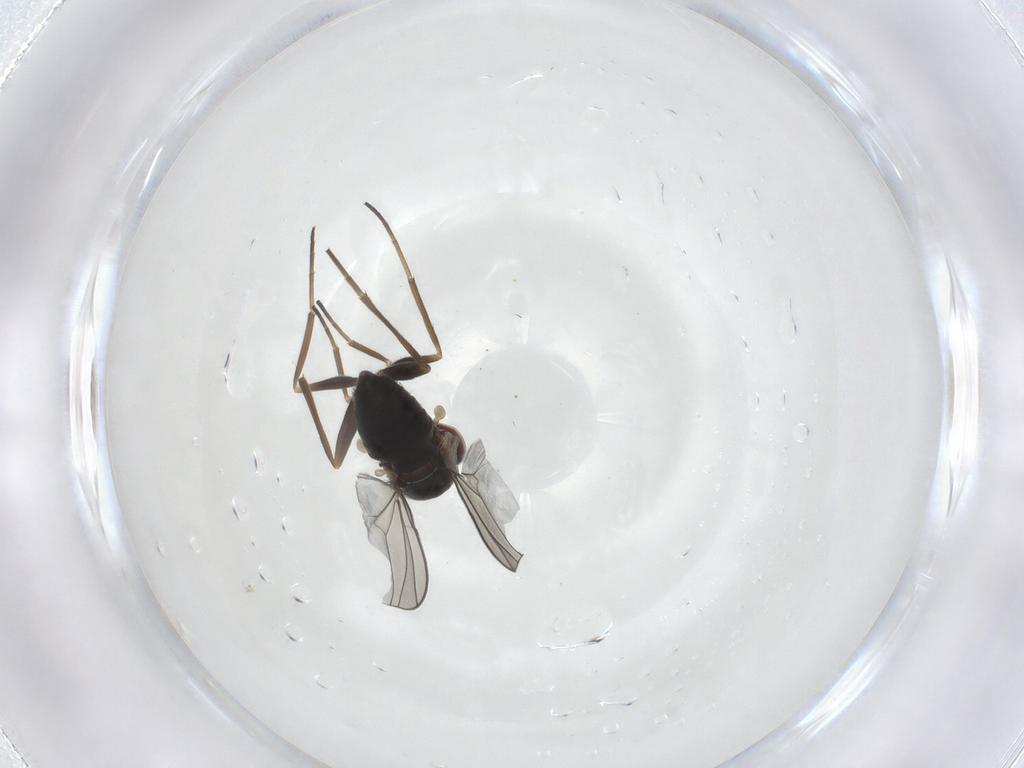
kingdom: Animalia
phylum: Arthropoda
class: Insecta
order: Diptera
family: Dolichopodidae
